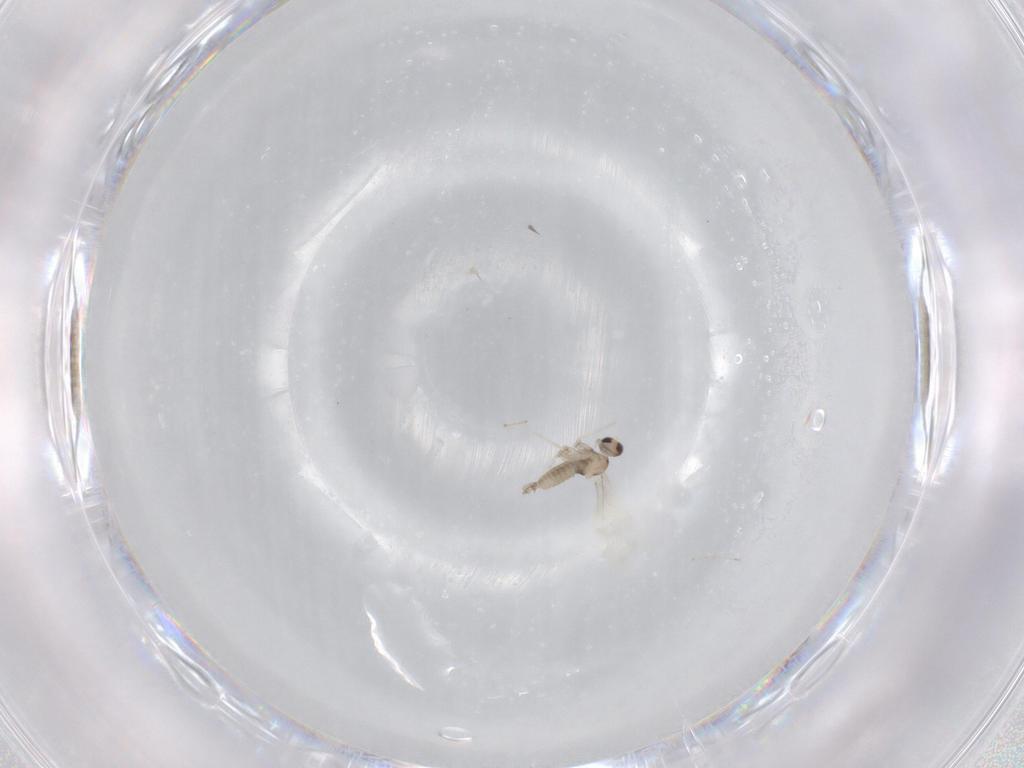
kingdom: Animalia
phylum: Arthropoda
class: Insecta
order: Diptera
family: Cecidomyiidae
